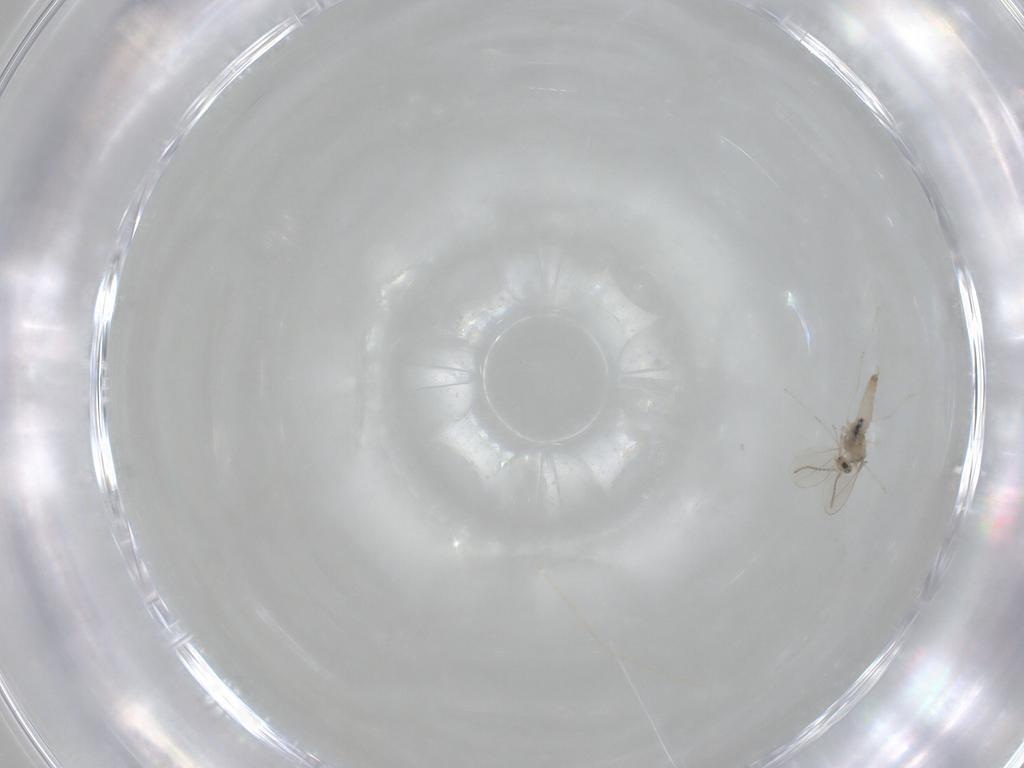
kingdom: Animalia
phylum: Arthropoda
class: Insecta
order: Diptera
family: Cecidomyiidae
